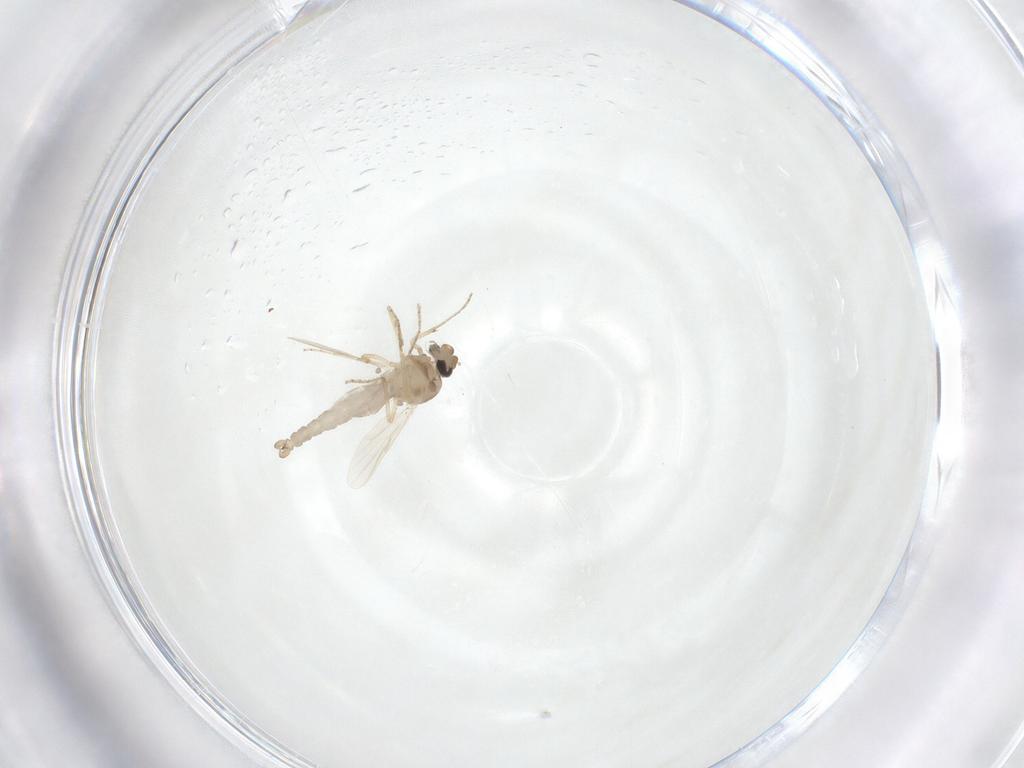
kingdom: Animalia
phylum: Arthropoda
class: Insecta
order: Diptera
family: Ceratopogonidae
